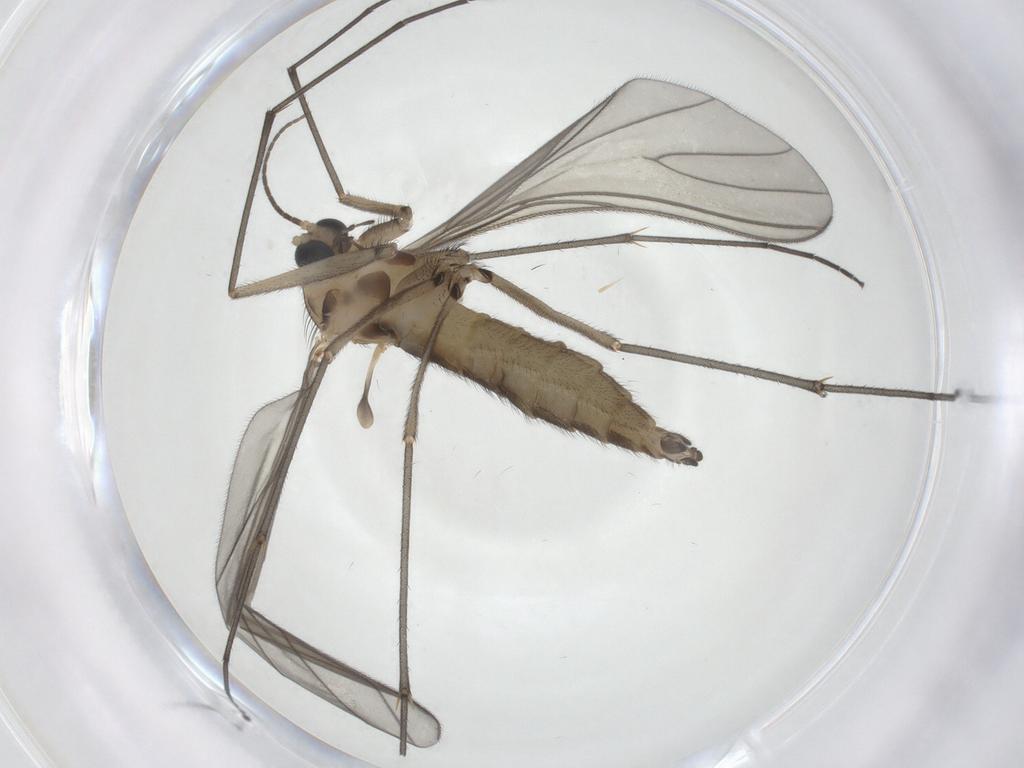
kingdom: Animalia
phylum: Arthropoda
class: Insecta
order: Diptera
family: Sciaridae
